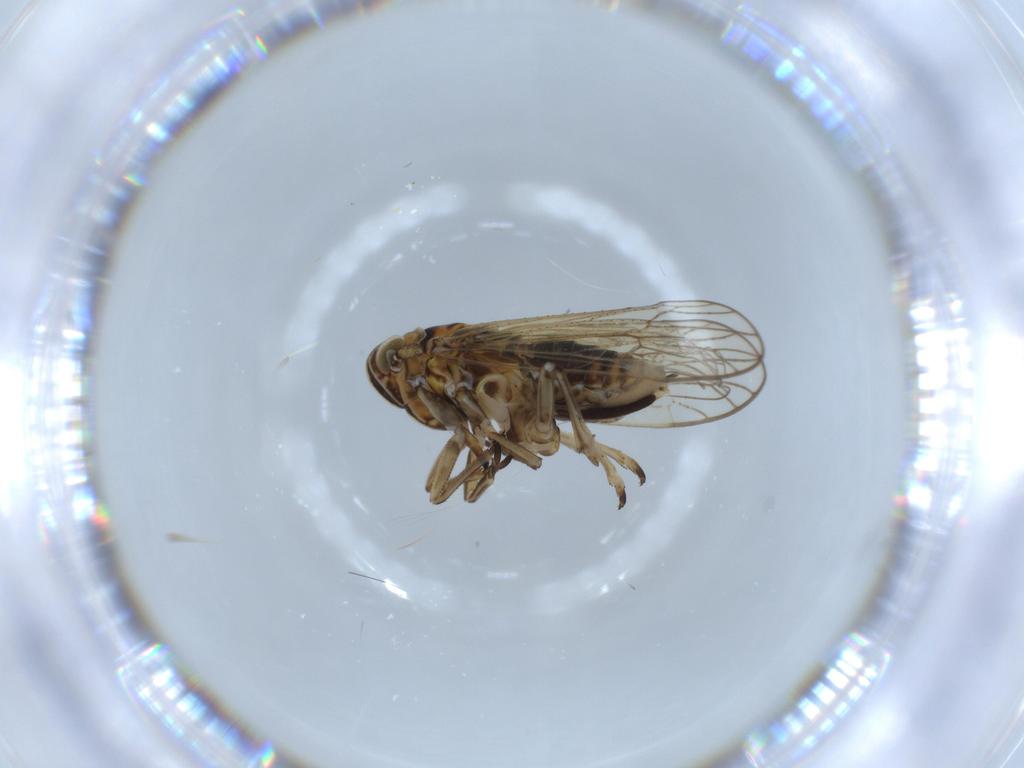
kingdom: Animalia
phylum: Arthropoda
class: Insecta
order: Hemiptera
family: Cicadellidae
